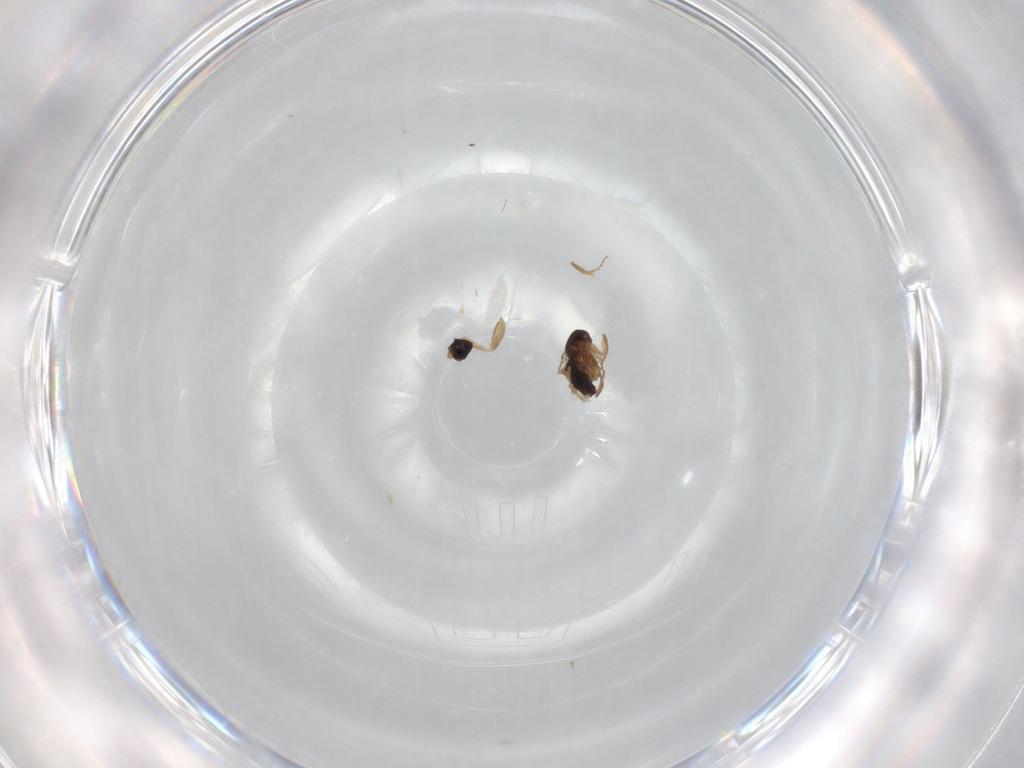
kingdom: Animalia
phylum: Arthropoda
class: Insecta
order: Diptera
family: Glossinidae
